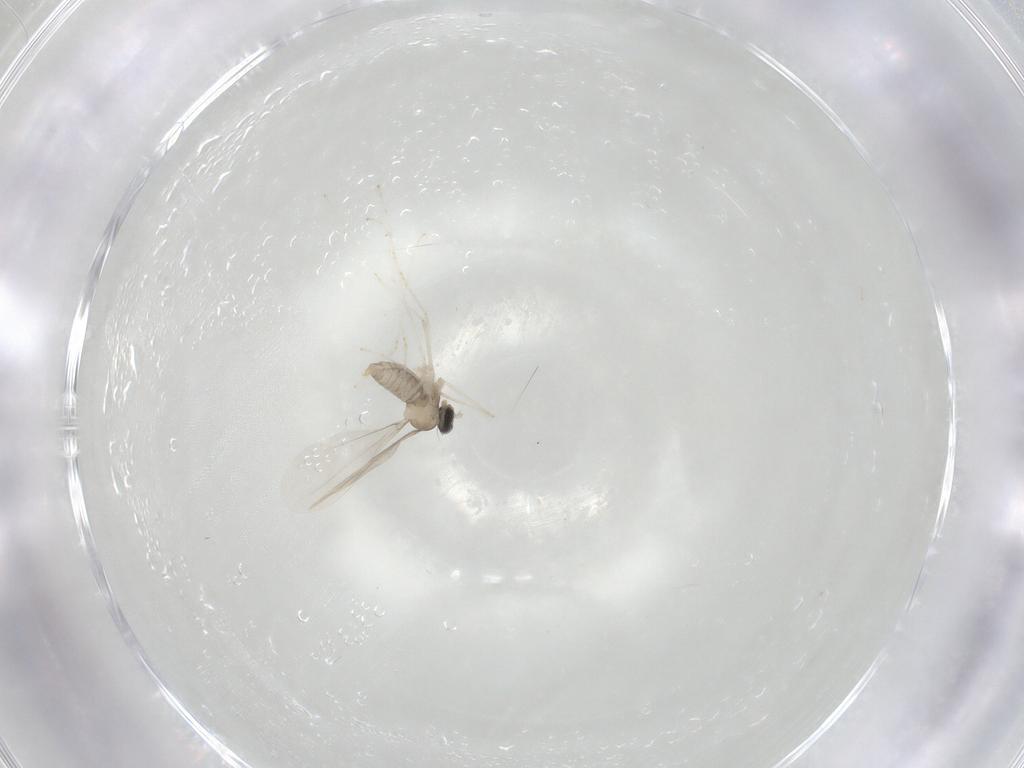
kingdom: Animalia
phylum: Arthropoda
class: Insecta
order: Diptera
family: Cecidomyiidae
